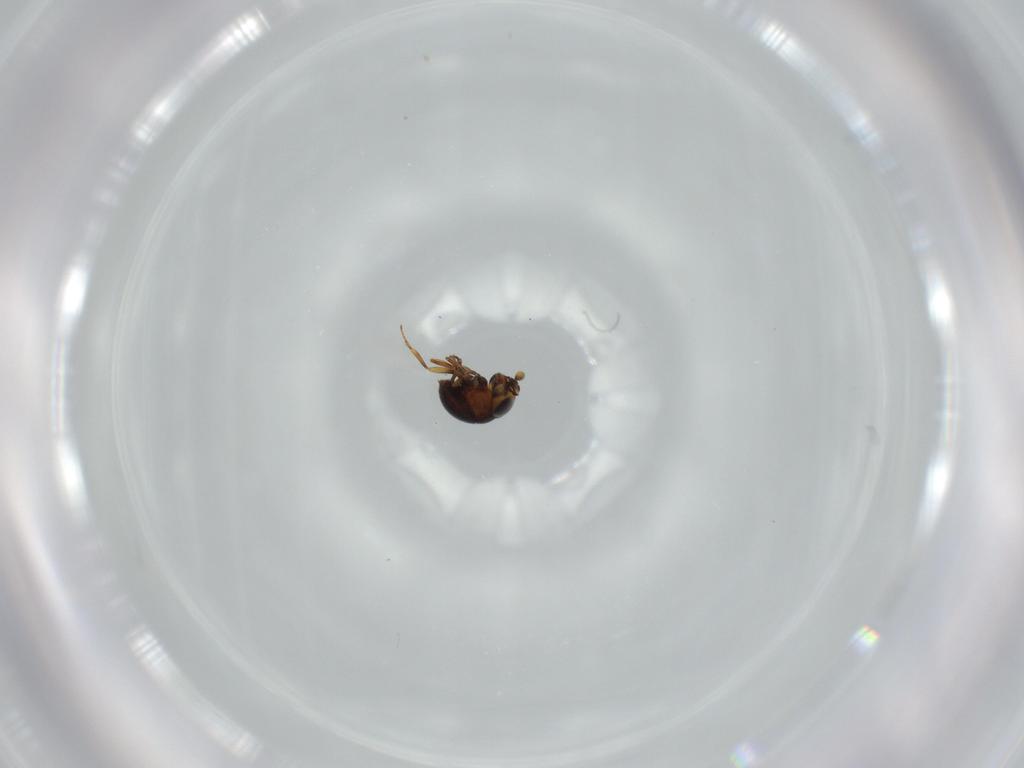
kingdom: Animalia
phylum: Arthropoda
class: Insecta
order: Hymenoptera
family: Scelionidae
